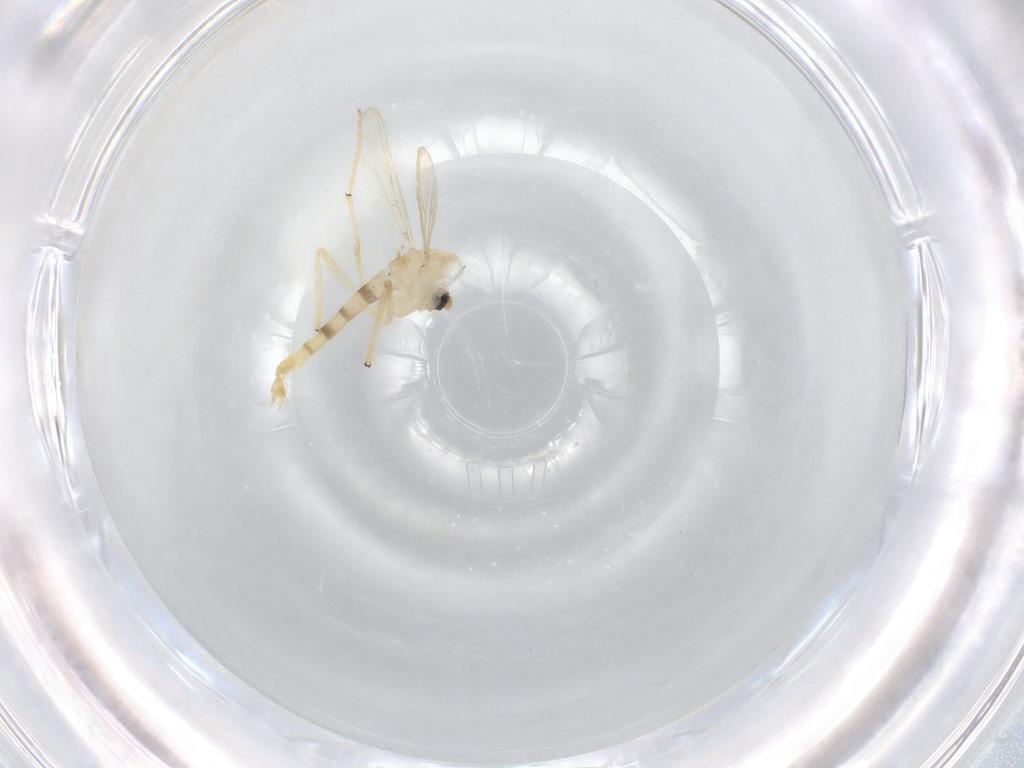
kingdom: Animalia
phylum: Arthropoda
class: Insecta
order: Diptera
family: Chironomidae
